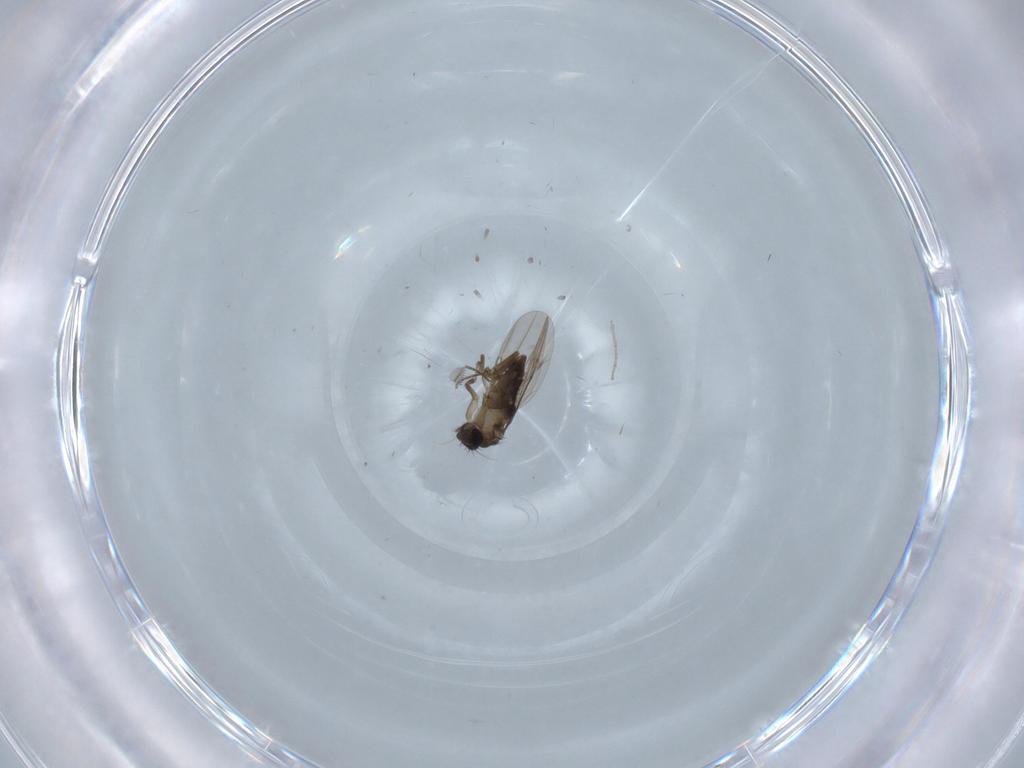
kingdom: Animalia
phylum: Arthropoda
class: Insecta
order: Diptera
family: Phoridae
